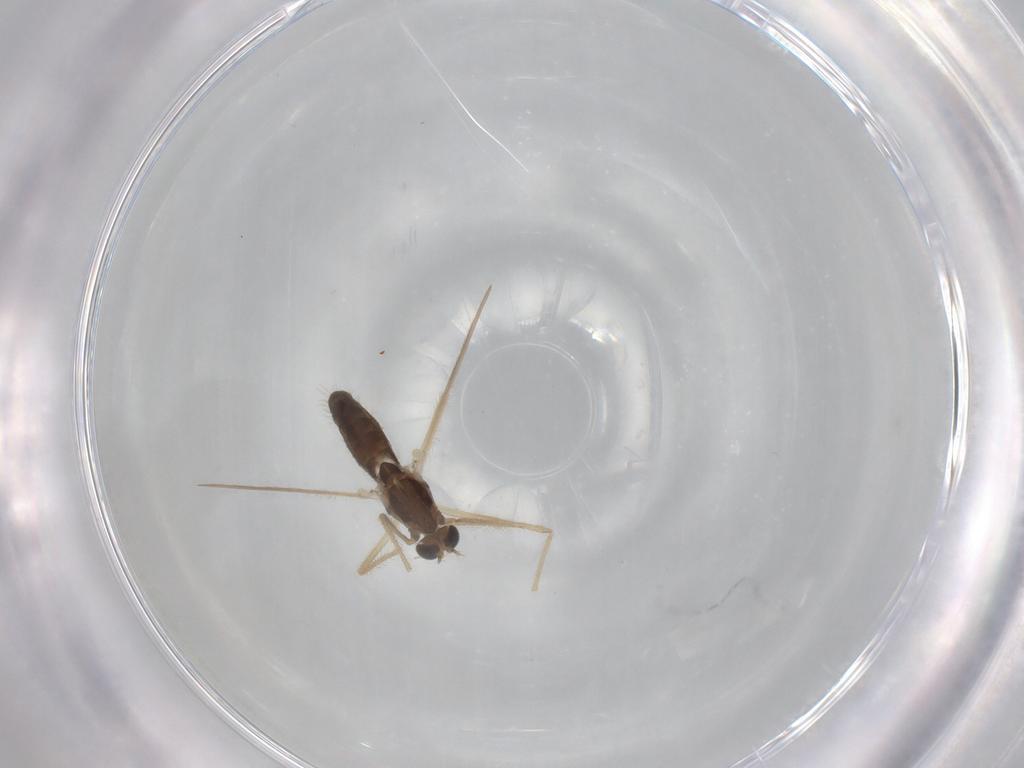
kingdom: Animalia
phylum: Arthropoda
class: Insecta
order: Diptera
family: Chironomidae
